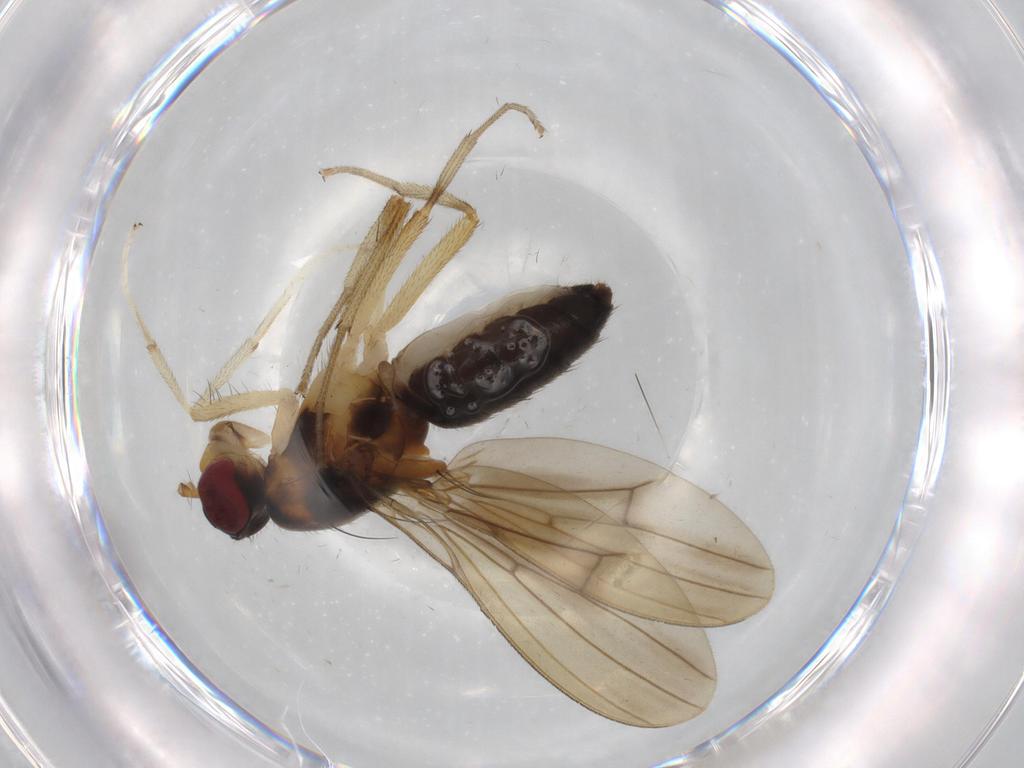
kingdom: Animalia
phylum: Arthropoda
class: Insecta
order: Diptera
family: Lauxaniidae
